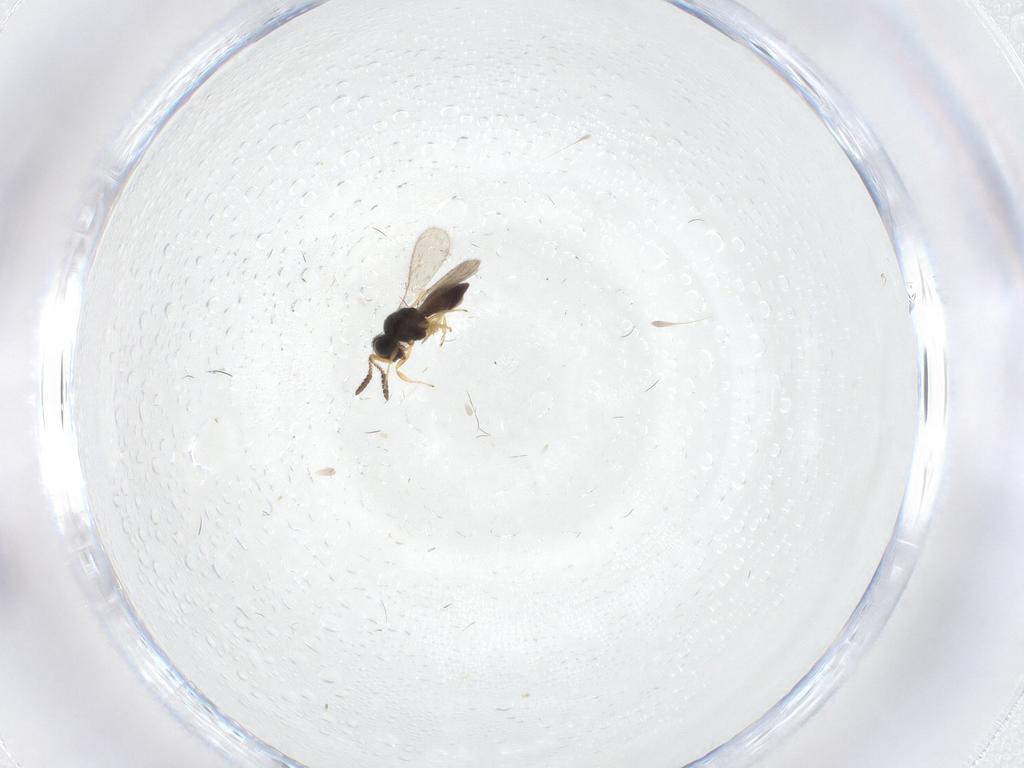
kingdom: Animalia
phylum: Arthropoda
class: Insecta
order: Hymenoptera
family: Scelionidae
